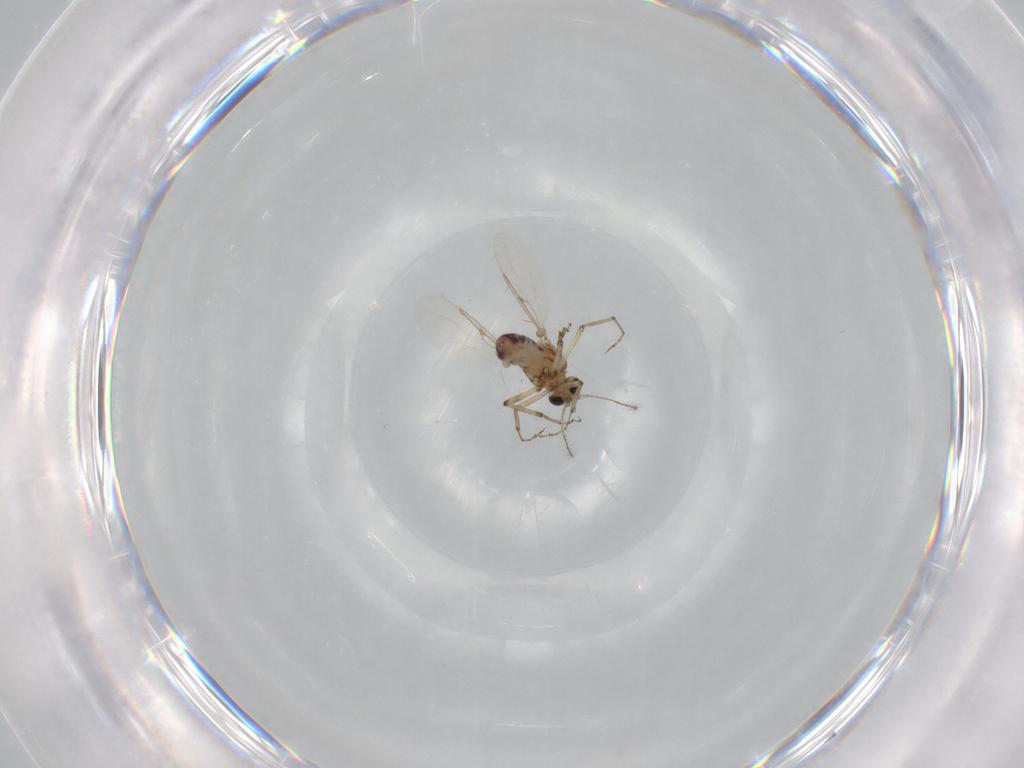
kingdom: Animalia
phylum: Arthropoda
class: Insecta
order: Diptera
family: Ceratopogonidae
